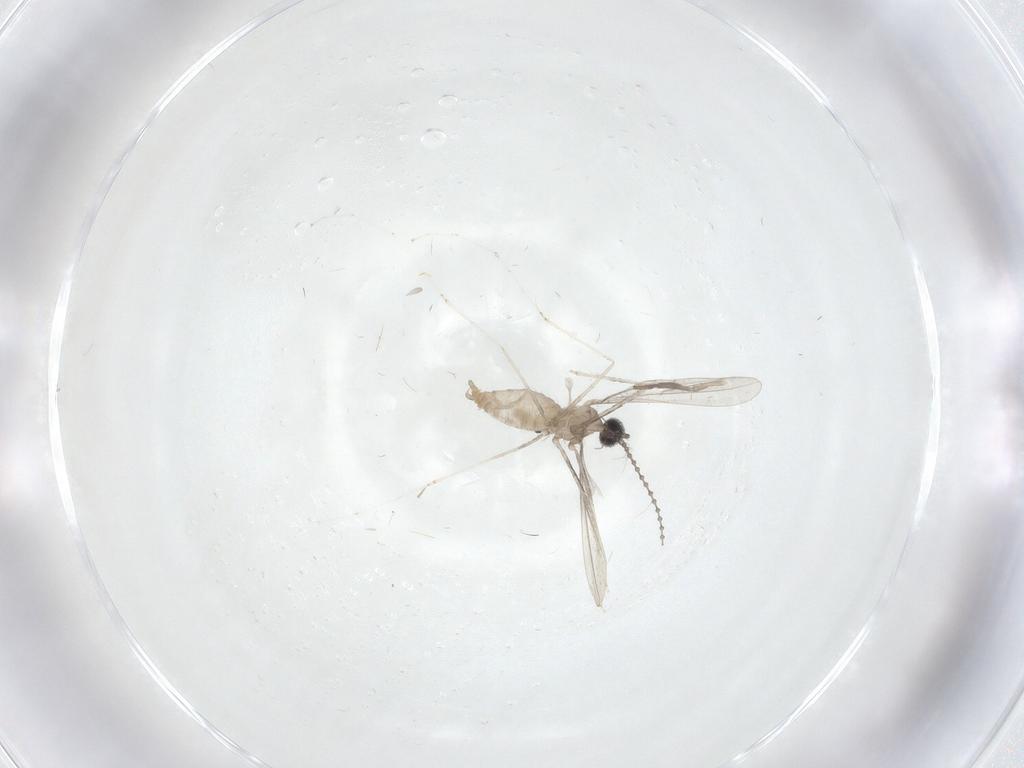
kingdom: Animalia
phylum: Arthropoda
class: Insecta
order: Diptera
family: Cecidomyiidae
